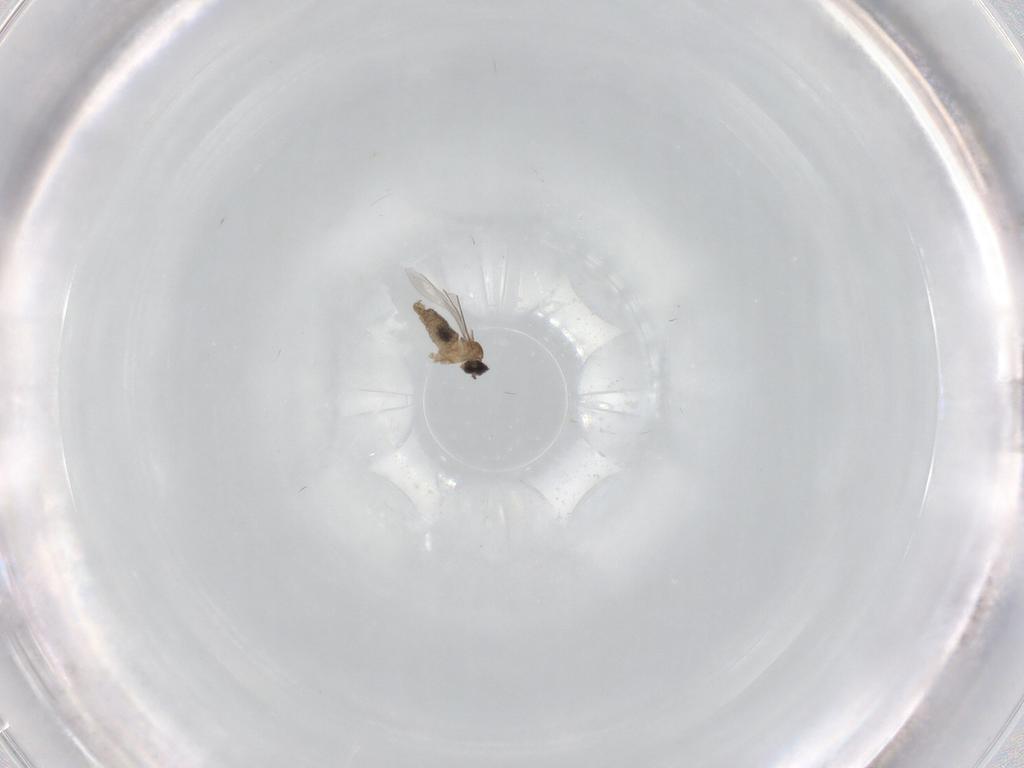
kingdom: Animalia
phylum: Arthropoda
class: Insecta
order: Diptera
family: Cecidomyiidae
